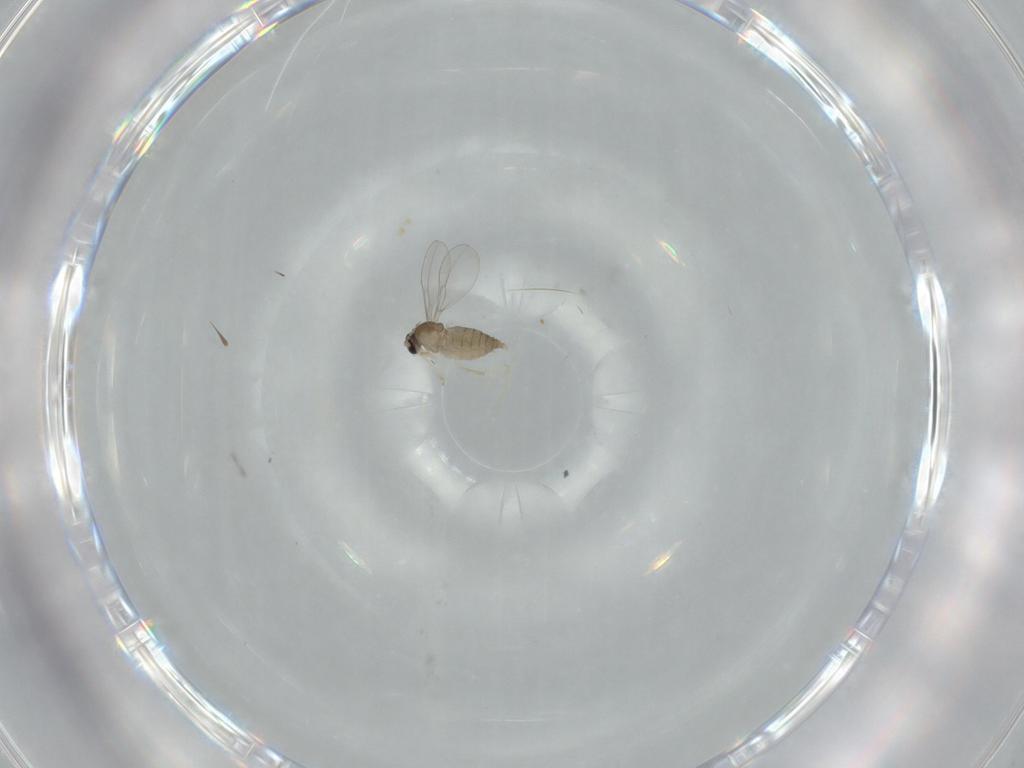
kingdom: Animalia
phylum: Arthropoda
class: Insecta
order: Diptera
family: Cecidomyiidae
